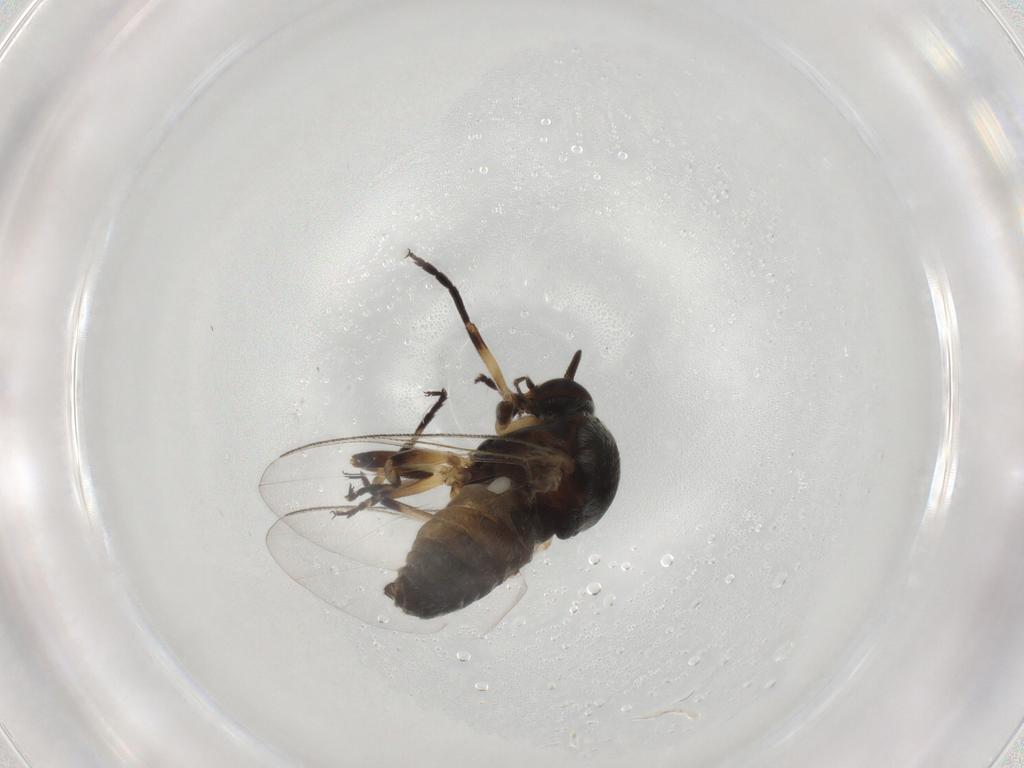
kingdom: Animalia
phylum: Arthropoda
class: Insecta
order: Diptera
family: Simuliidae
